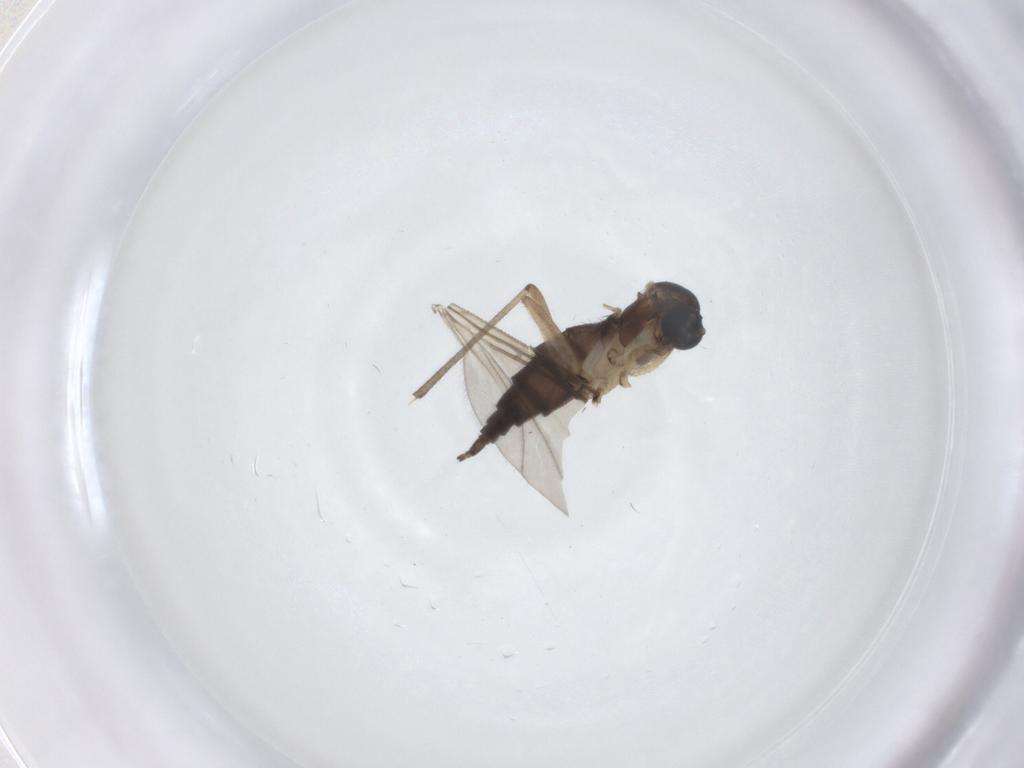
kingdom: Animalia
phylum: Arthropoda
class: Insecta
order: Diptera
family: Sciaridae
